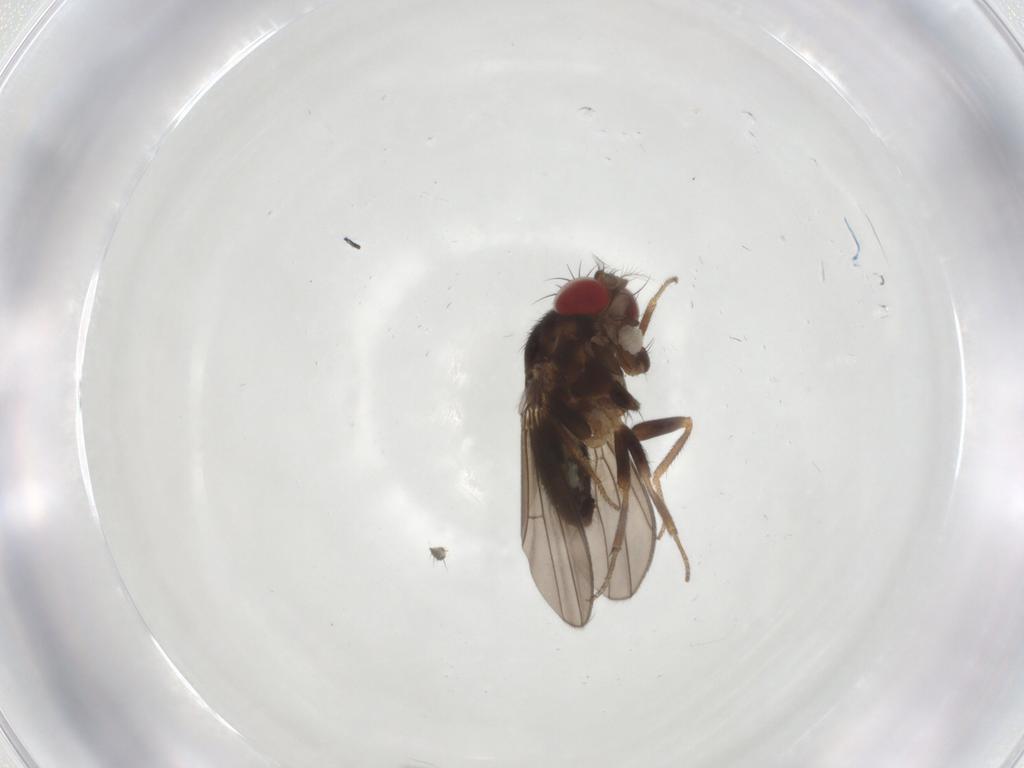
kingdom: Animalia
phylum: Arthropoda
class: Insecta
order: Diptera
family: Drosophilidae
